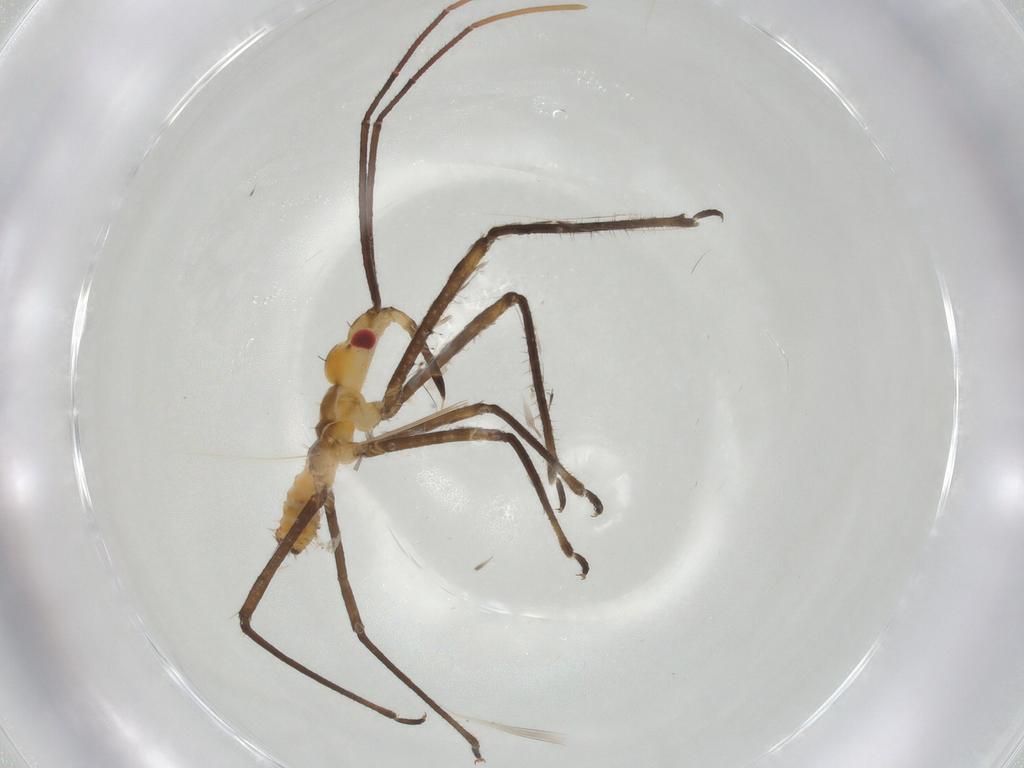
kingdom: Animalia
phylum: Arthropoda
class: Insecta
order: Hemiptera
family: Reduviidae
